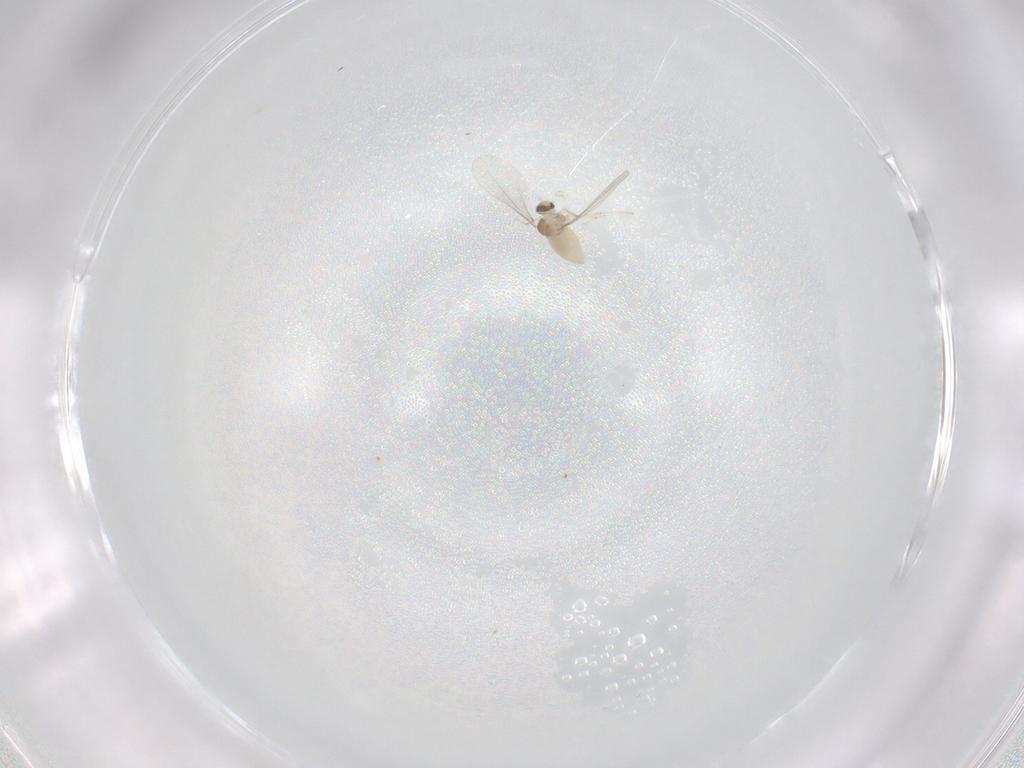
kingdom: Animalia
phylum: Arthropoda
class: Insecta
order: Diptera
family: Cecidomyiidae
